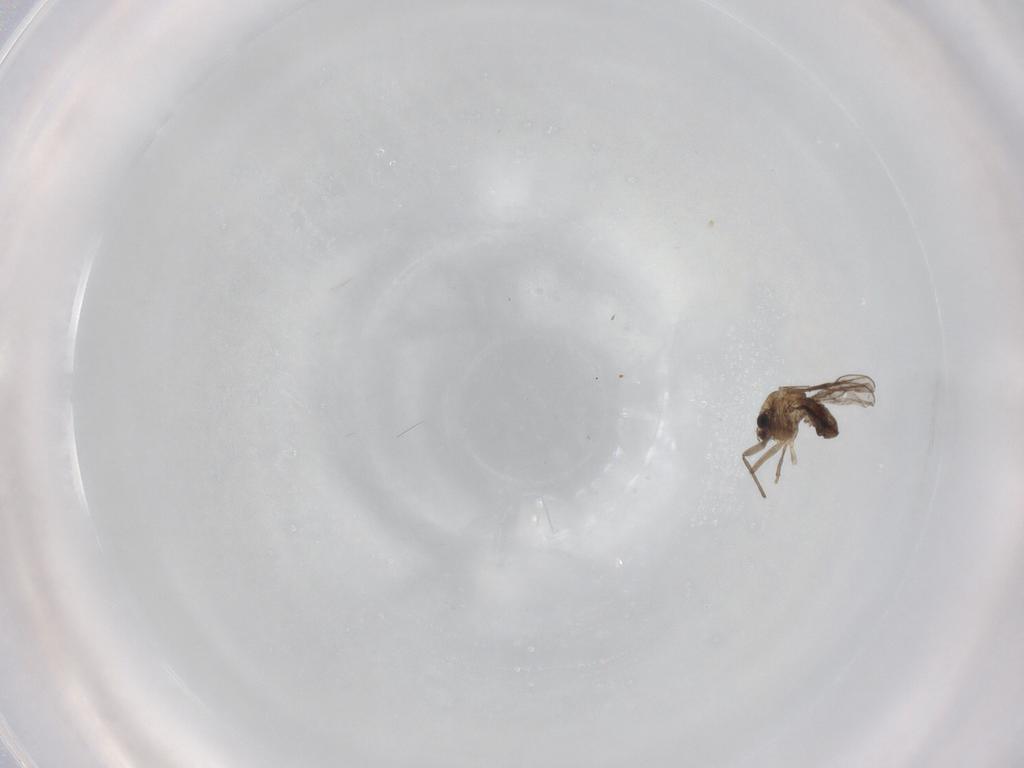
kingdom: Animalia
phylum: Arthropoda
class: Insecta
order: Diptera
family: Chironomidae
